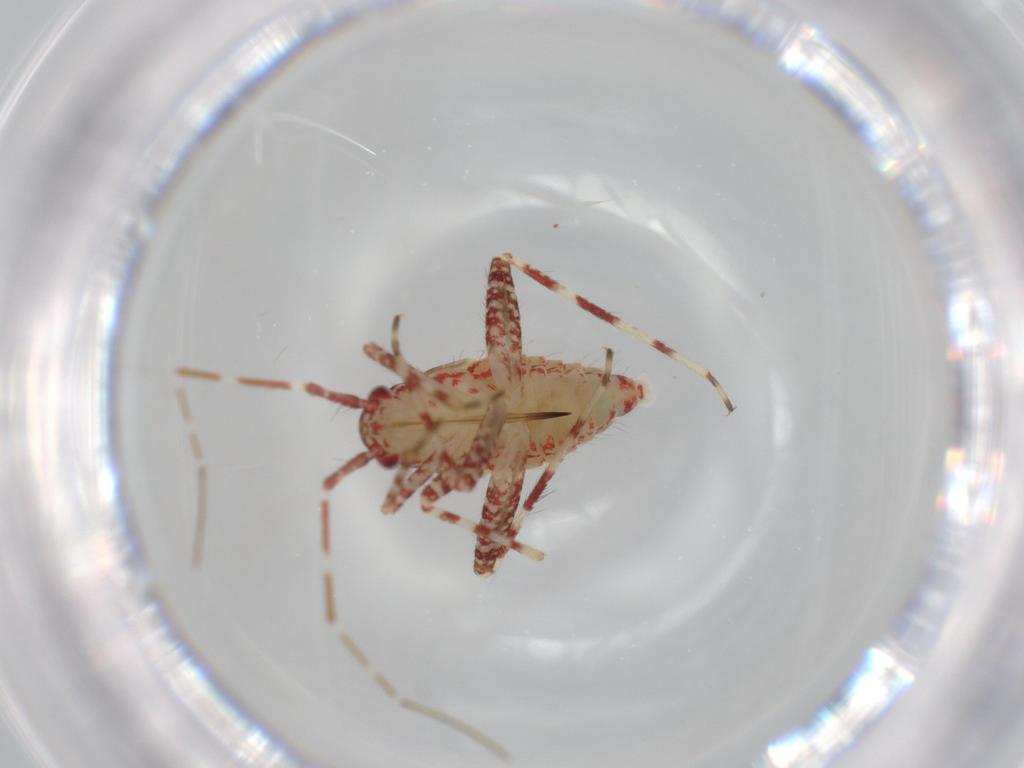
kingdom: Animalia
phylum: Arthropoda
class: Insecta
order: Hemiptera
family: Miridae
